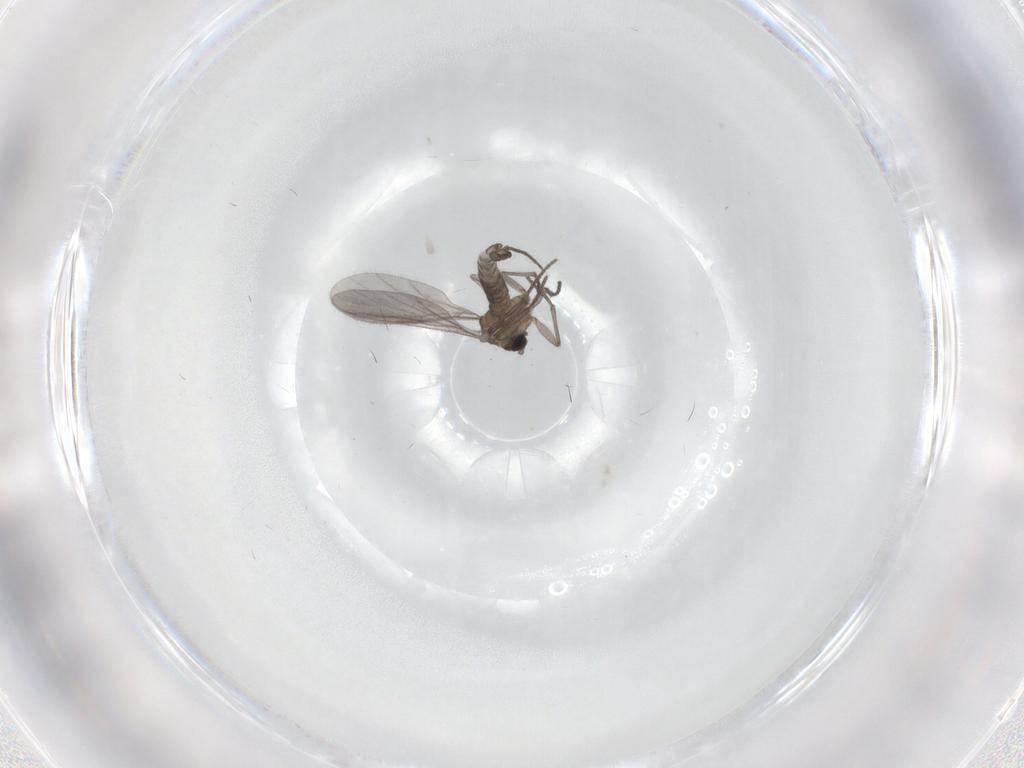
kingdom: Animalia
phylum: Arthropoda
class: Insecta
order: Diptera
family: Sciaridae
